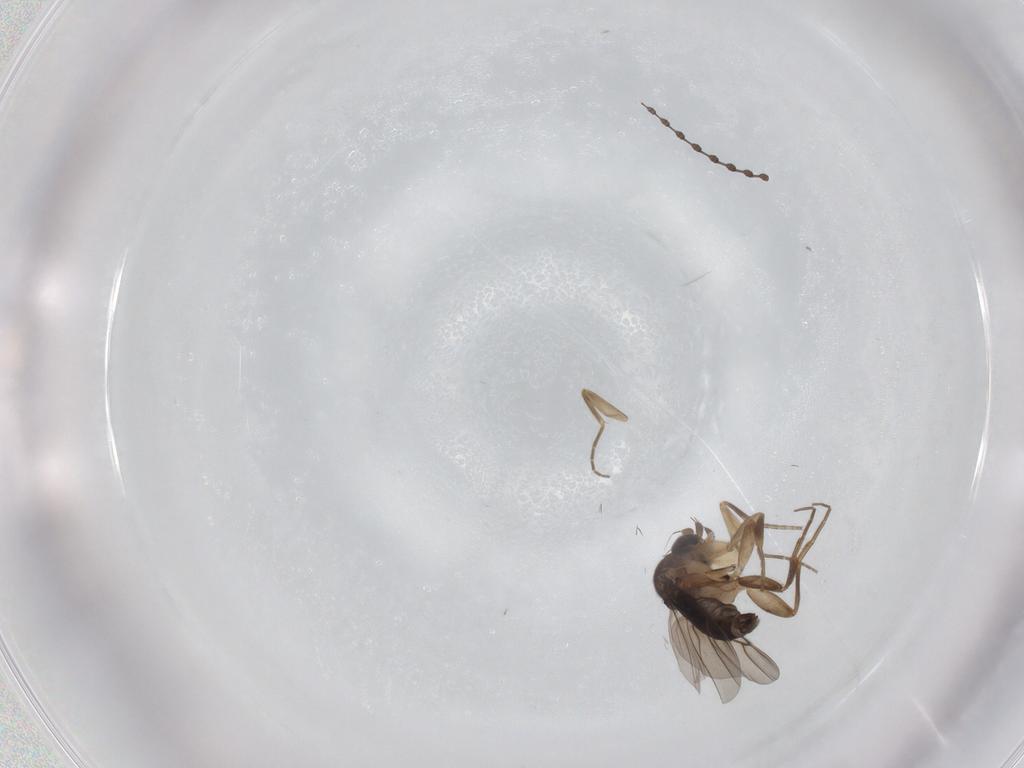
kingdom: Animalia
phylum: Arthropoda
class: Insecta
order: Diptera
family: Cecidomyiidae
